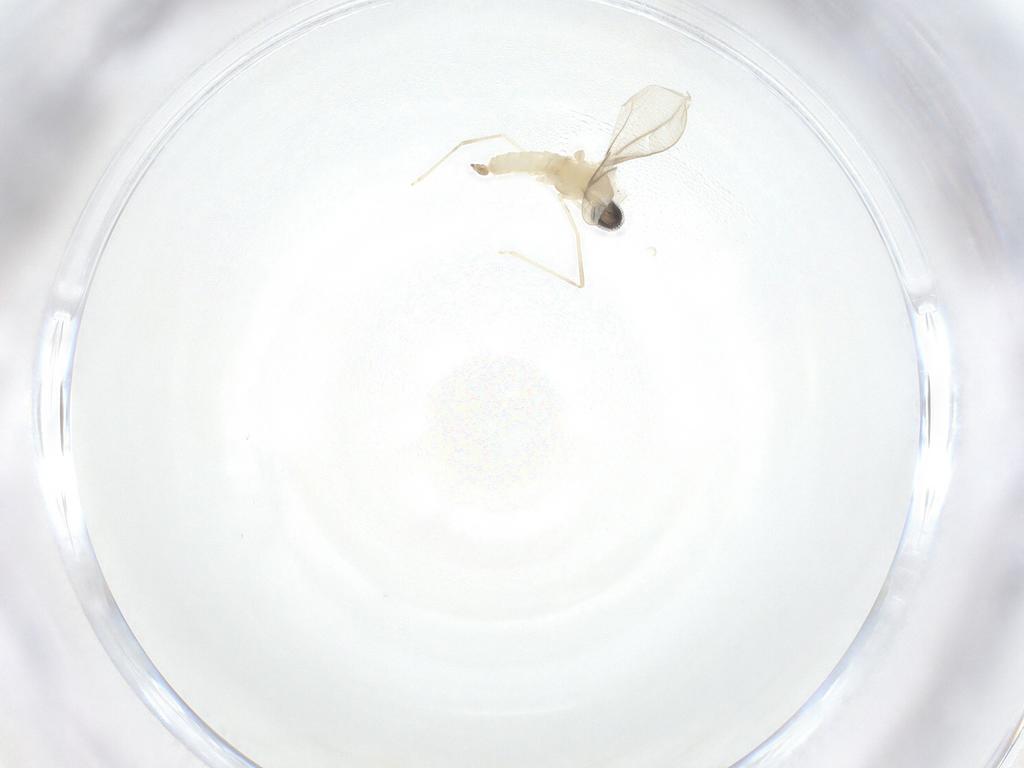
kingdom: Animalia
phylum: Arthropoda
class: Insecta
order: Diptera
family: Cecidomyiidae
